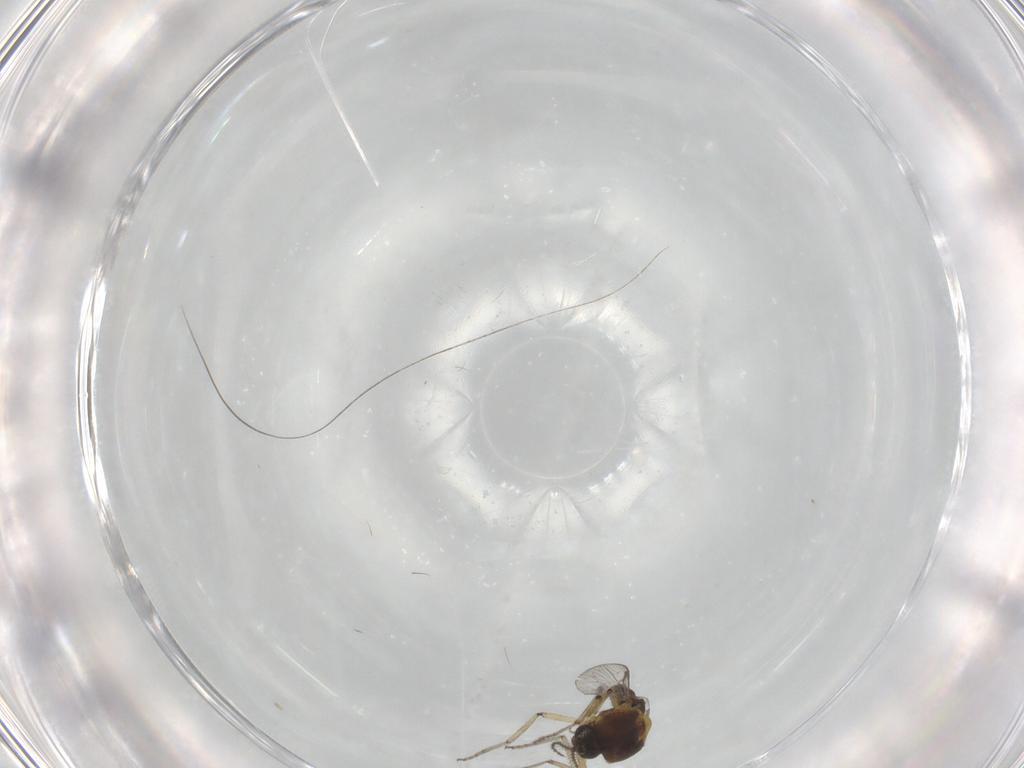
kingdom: Animalia
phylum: Arthropoda
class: Insecta
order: Diptera
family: Ceratopogonidae
